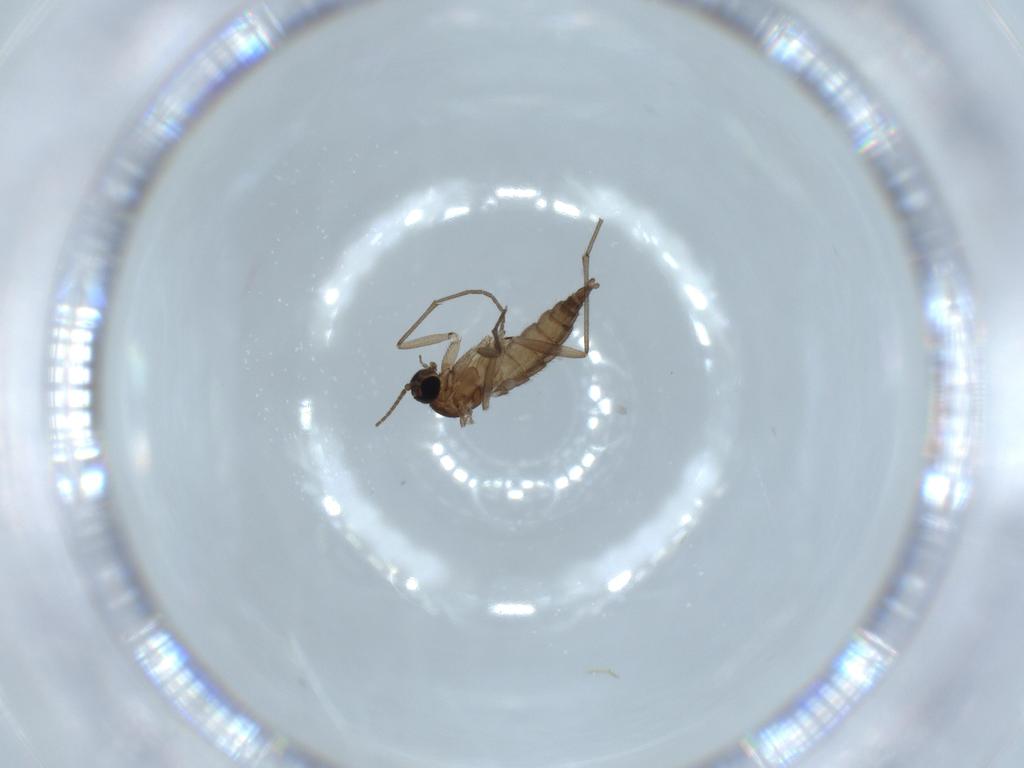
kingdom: Animalia
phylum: Arthropoda
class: Insecta
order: Diptera
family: Sciaridae
